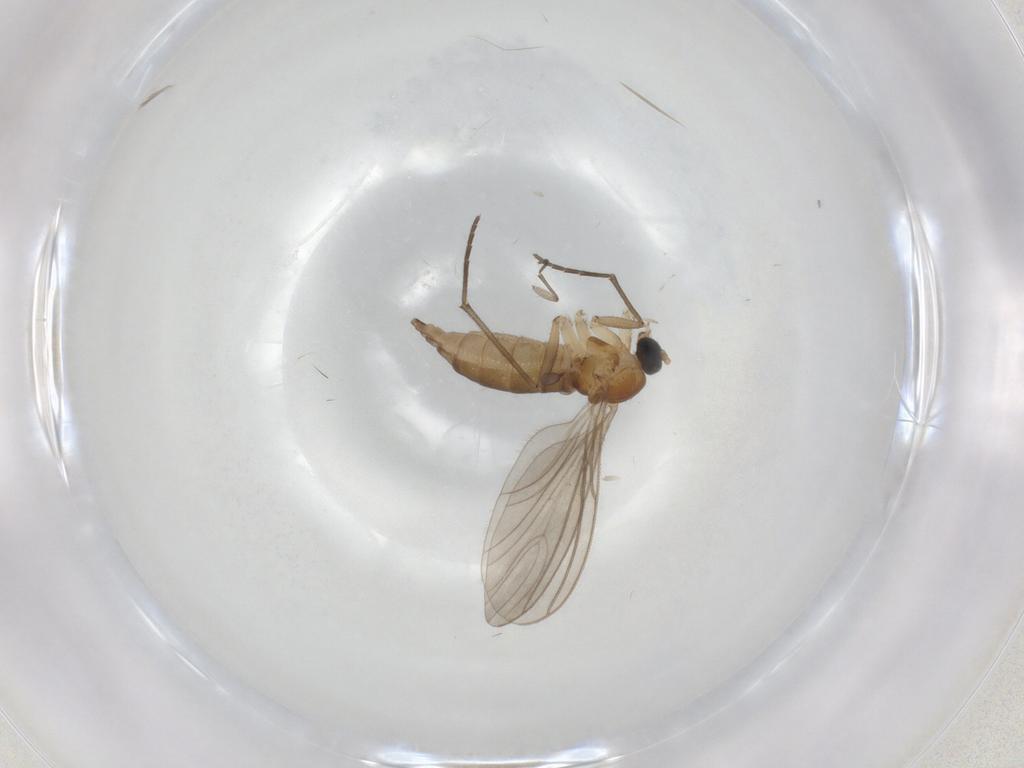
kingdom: Animalia
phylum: Arthropoda
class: Insecta
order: Diptera
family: Sciaridae
